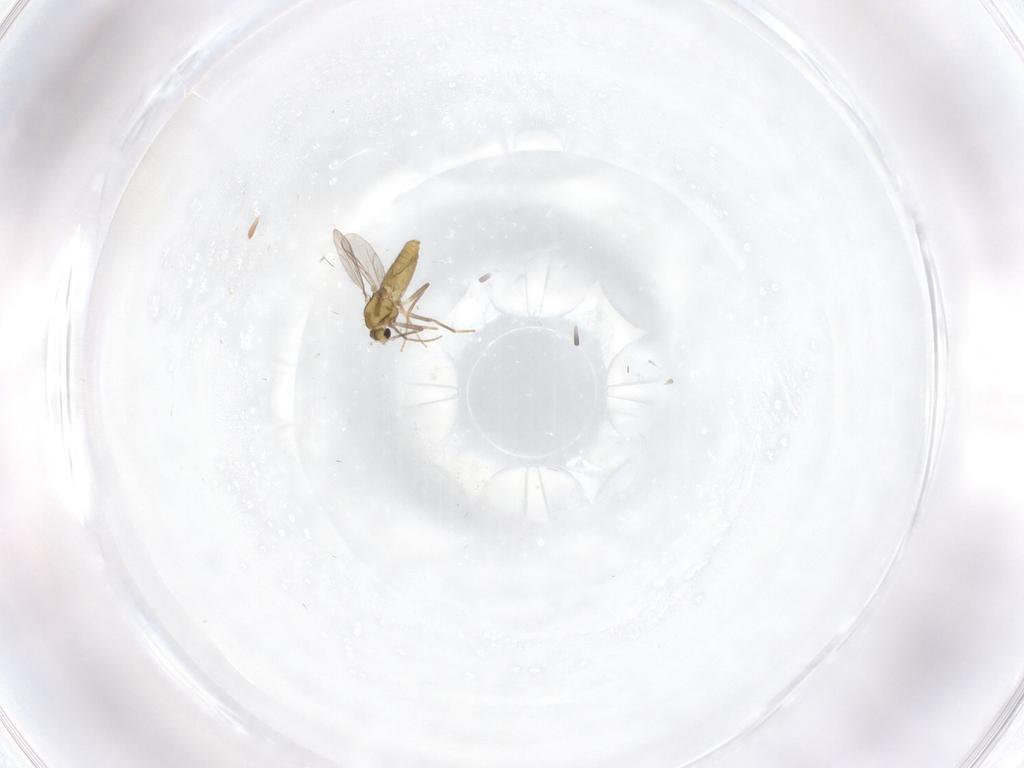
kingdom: Animalia
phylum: Arthropoda
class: Insecta
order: Diptera
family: Chironomidae
